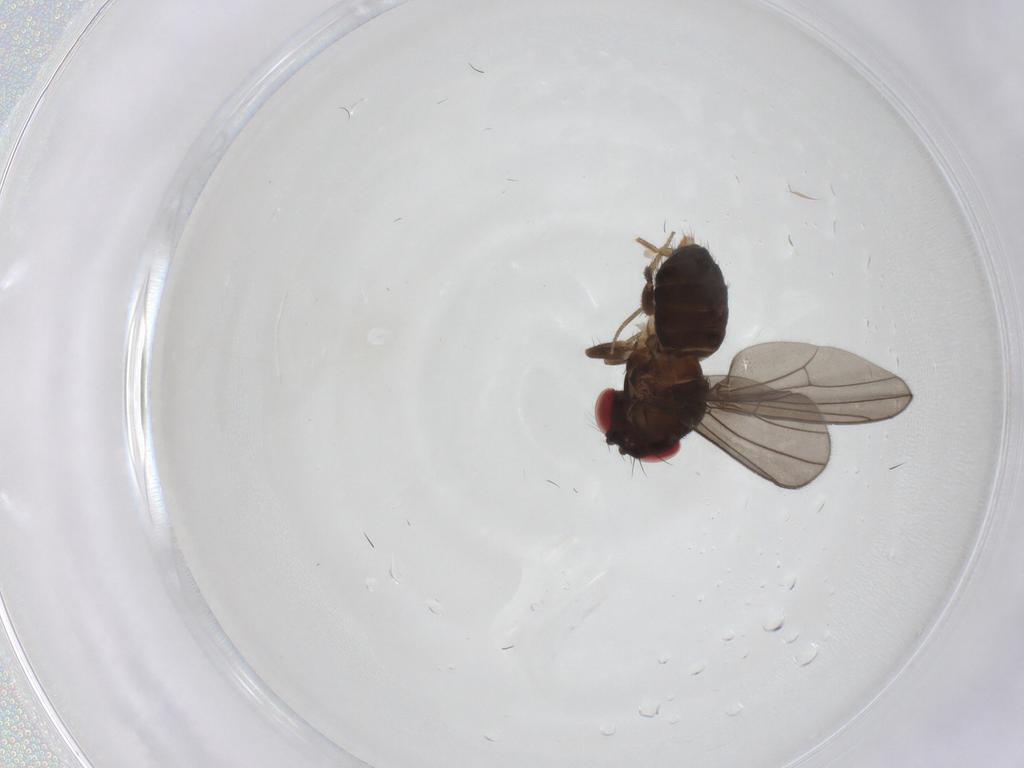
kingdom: Animalia
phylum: Arthropoda
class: Insecta
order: Diptera
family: Drosophilidae
